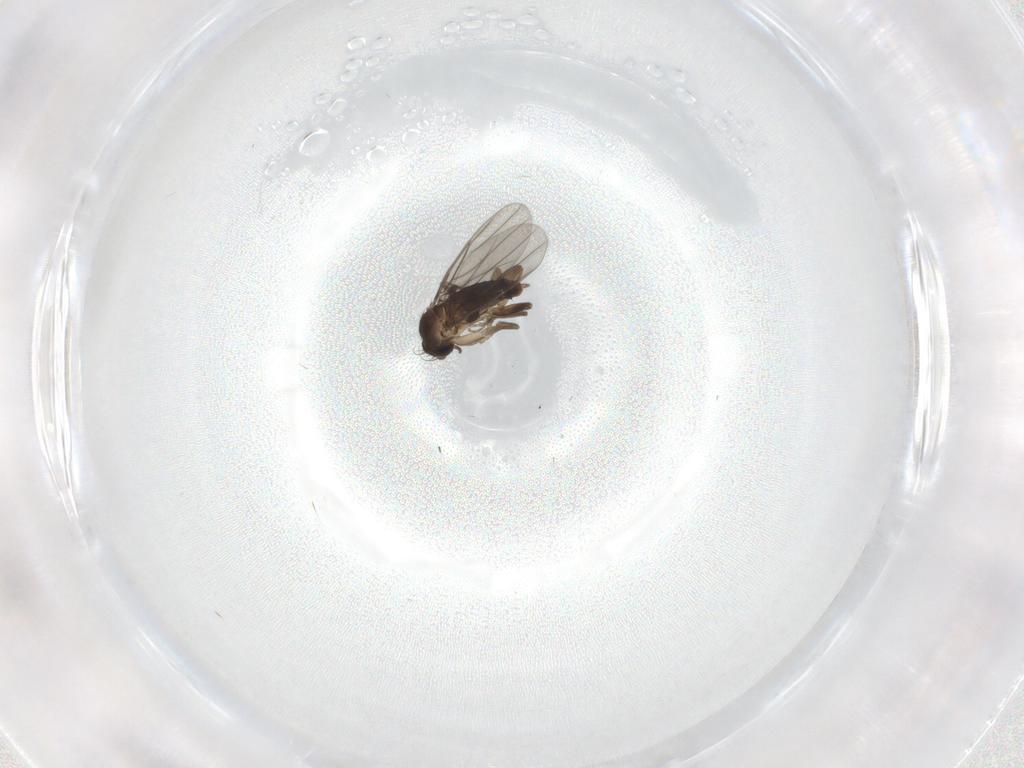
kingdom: Animalia
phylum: Arthropoda
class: Insecta
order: Diptera
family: Cecidomyiidae
